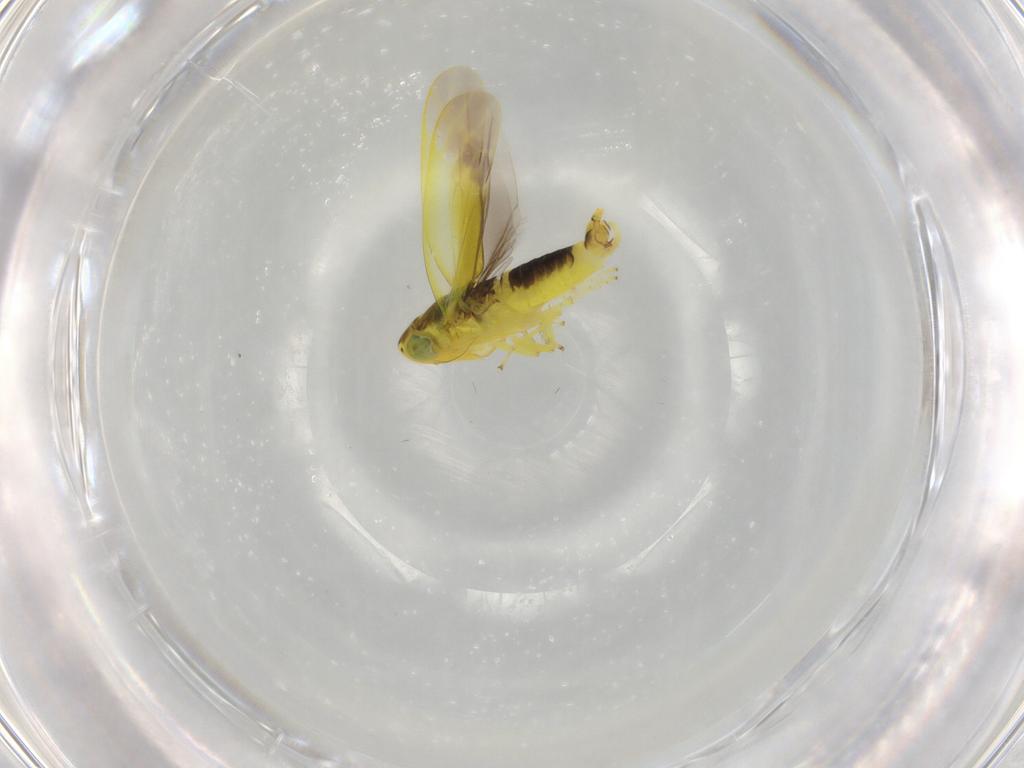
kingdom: Animalia
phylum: Arthropoda
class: Insecta
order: Hemiptera
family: Cicadellidae
